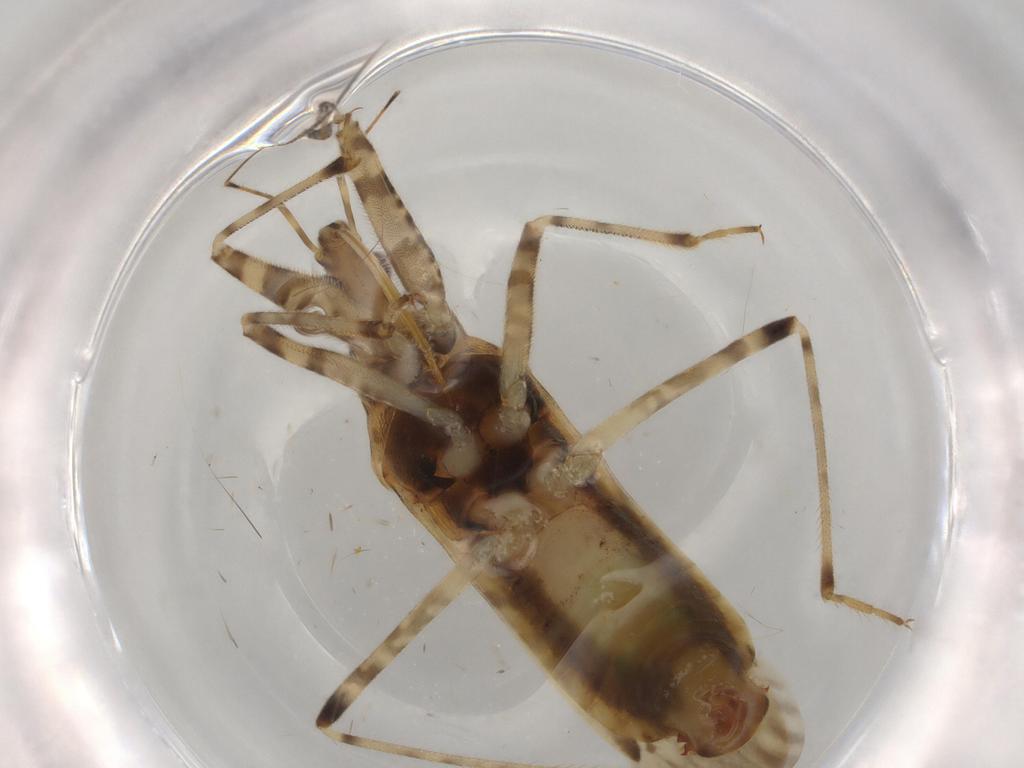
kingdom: Animalia
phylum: Arthropoda
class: Insecta
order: Hemiptera
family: Nabidae
